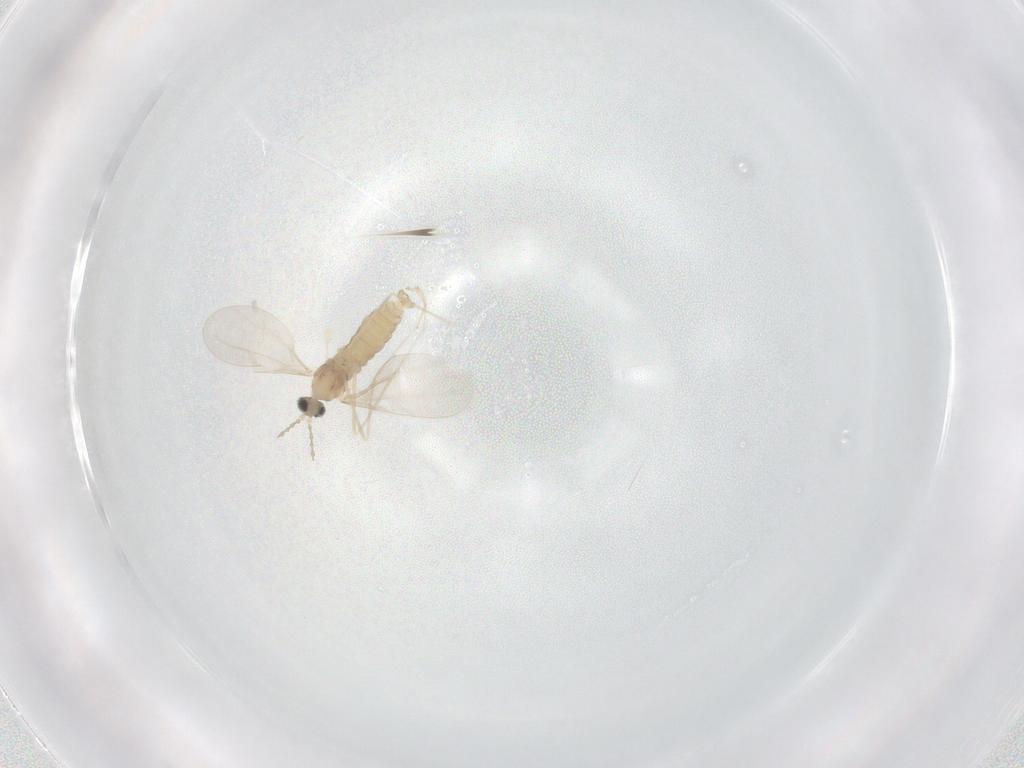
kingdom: Animalia
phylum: Arthropoda
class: Insecta
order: Diptera
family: Cecidomyiidae
